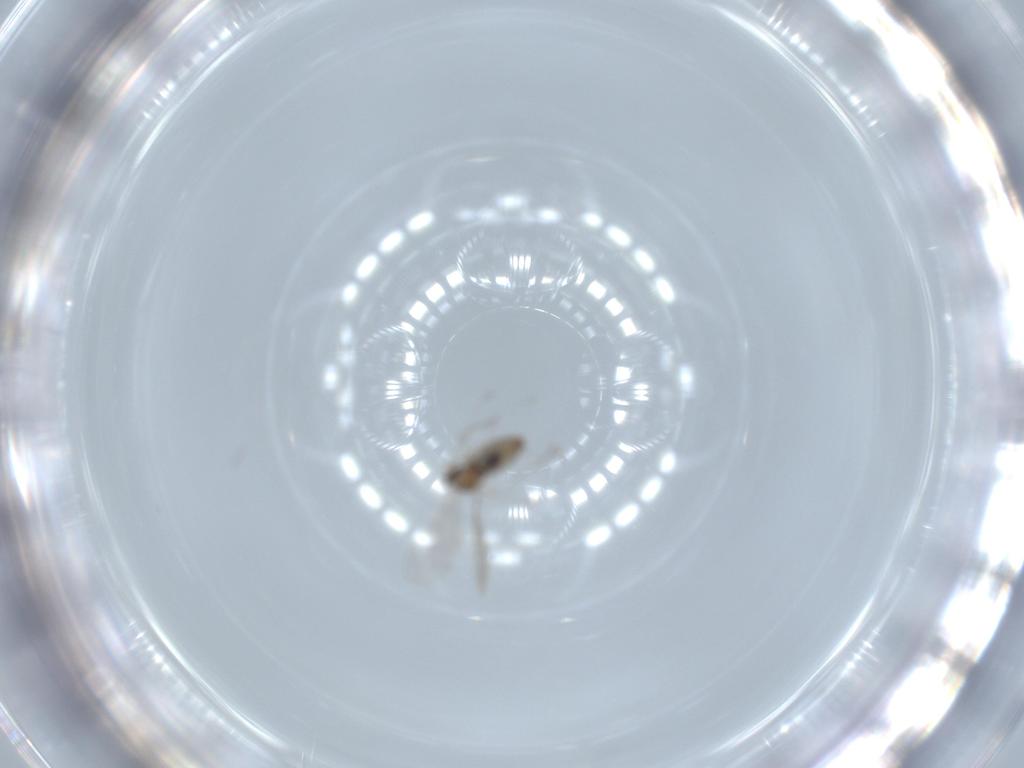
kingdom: Animalia
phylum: Arthropoda
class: Insecta
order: Diptera
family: Cecidomyiidae
